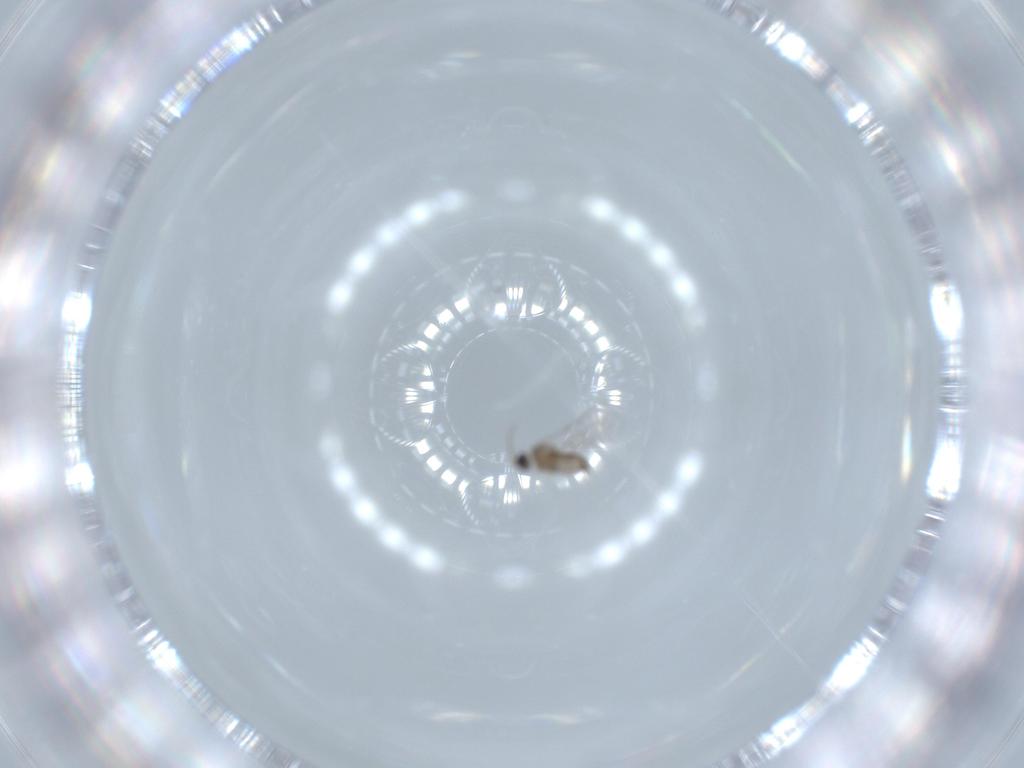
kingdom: Animalia
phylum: Arthropoda
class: Insecta
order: Diptera
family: Cecidomyiidae
